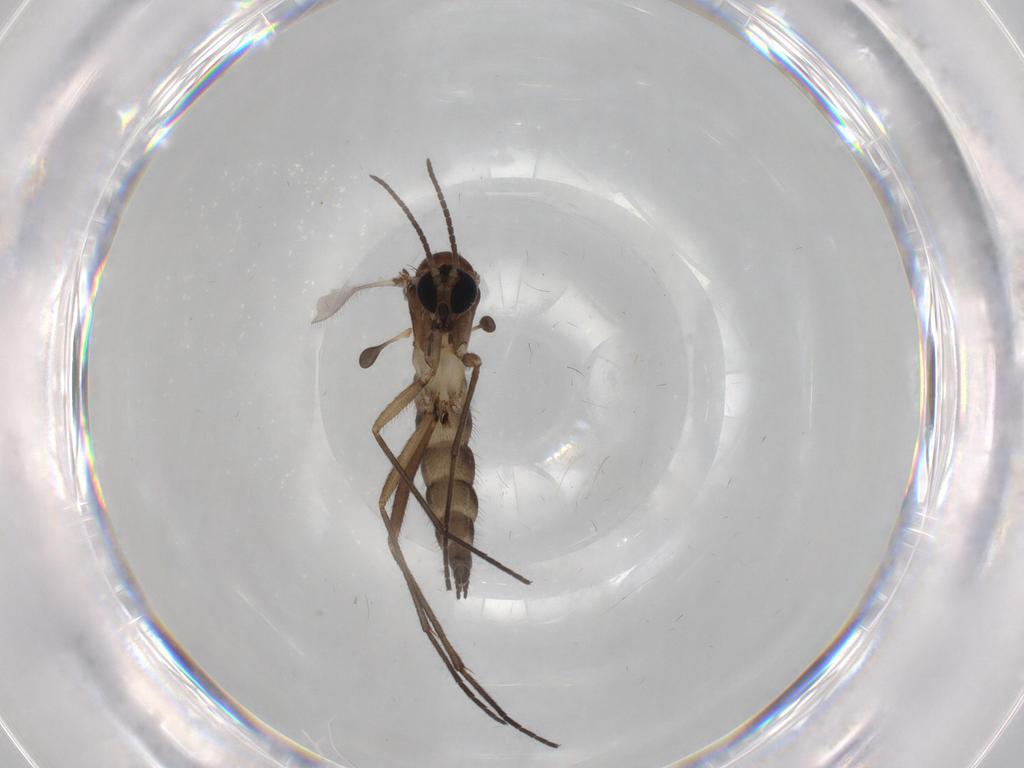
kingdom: Animalia
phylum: Arthropoda
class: Insecta
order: Diptera
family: Sciaridae
